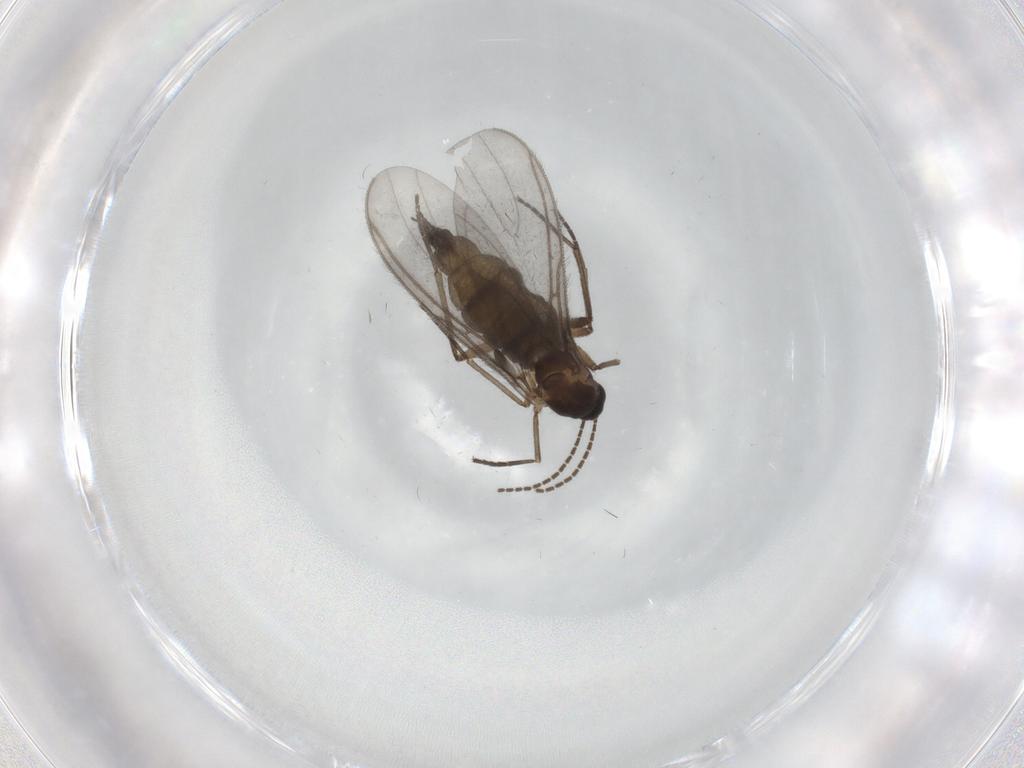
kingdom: Animalia
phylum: Arthropoda
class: Insecta
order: Diptera
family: Sciaridae
